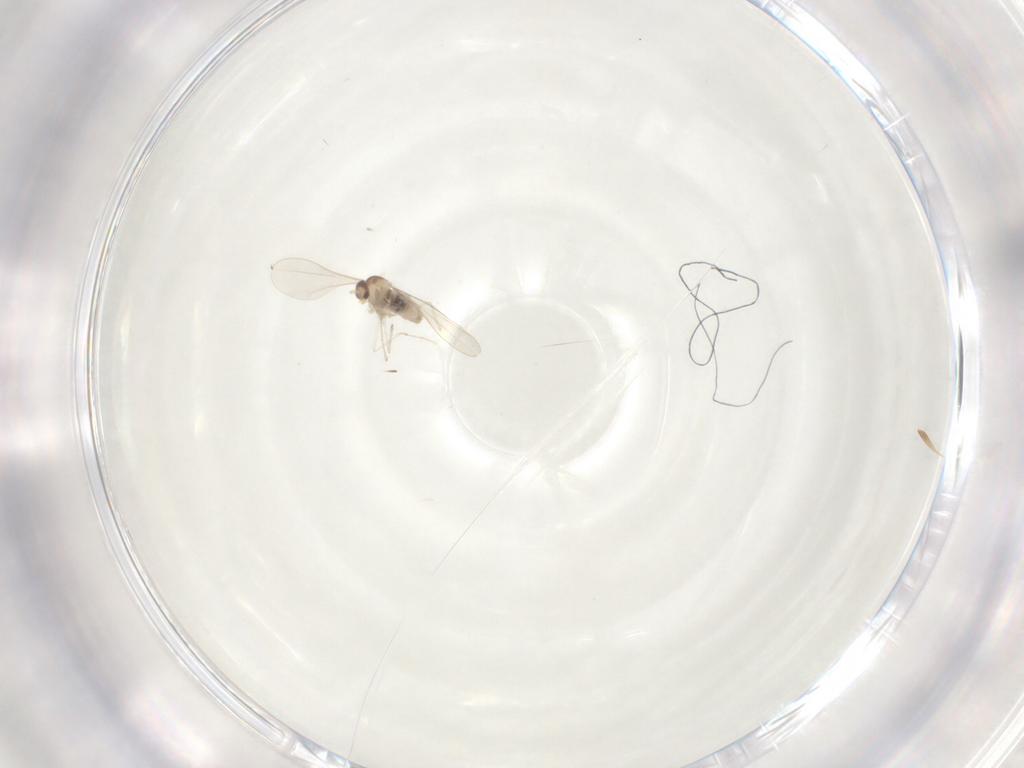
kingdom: Animalia
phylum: Arthropoda
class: Insecta
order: Diptera
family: Cecidomyiidae
